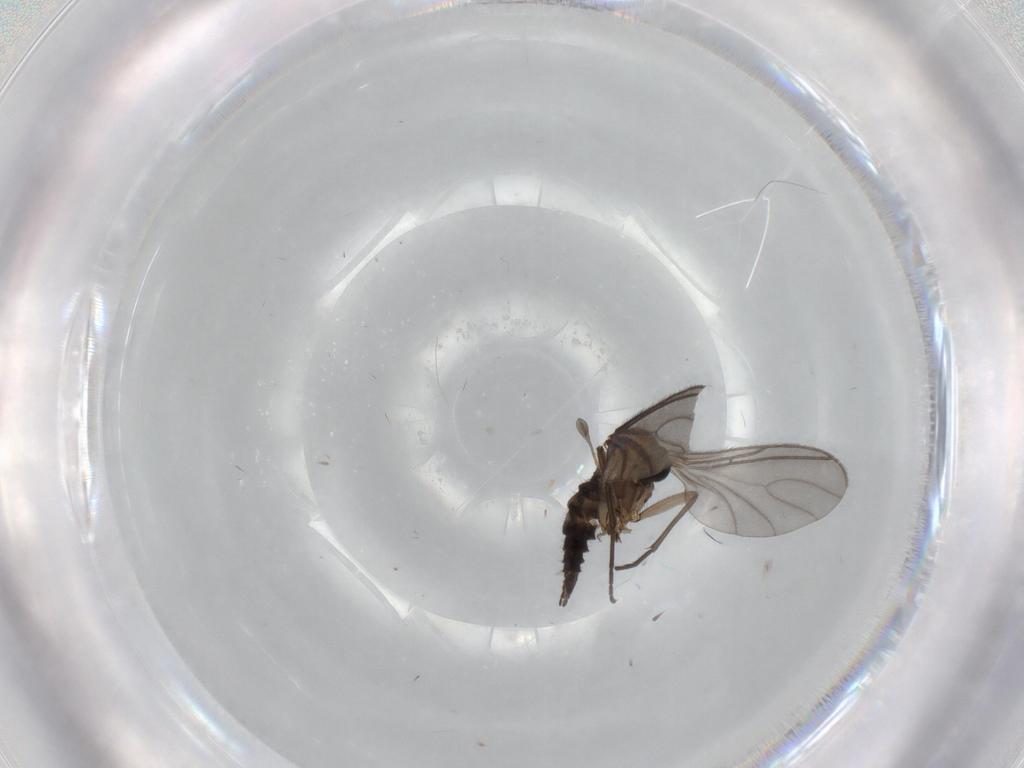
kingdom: Animalia
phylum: Arthropoda
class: Insecta
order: Diptera
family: Sciaridae
